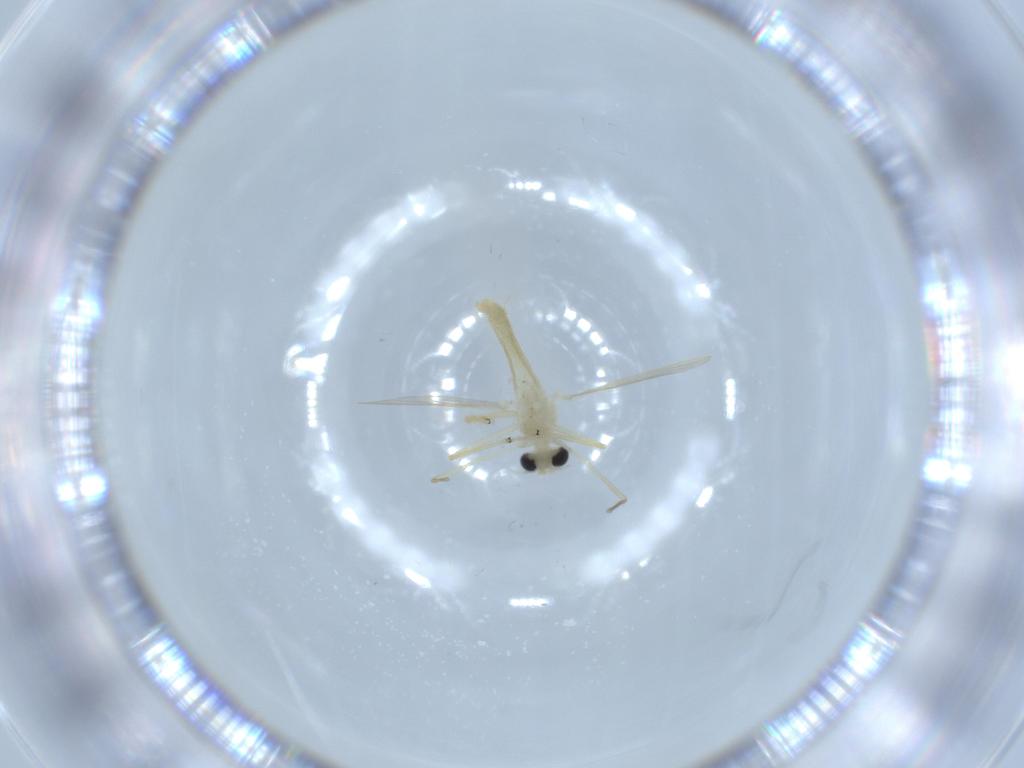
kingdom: Animalia
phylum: Arthropoda
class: Insecta
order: Diptera
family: Chironomidae
